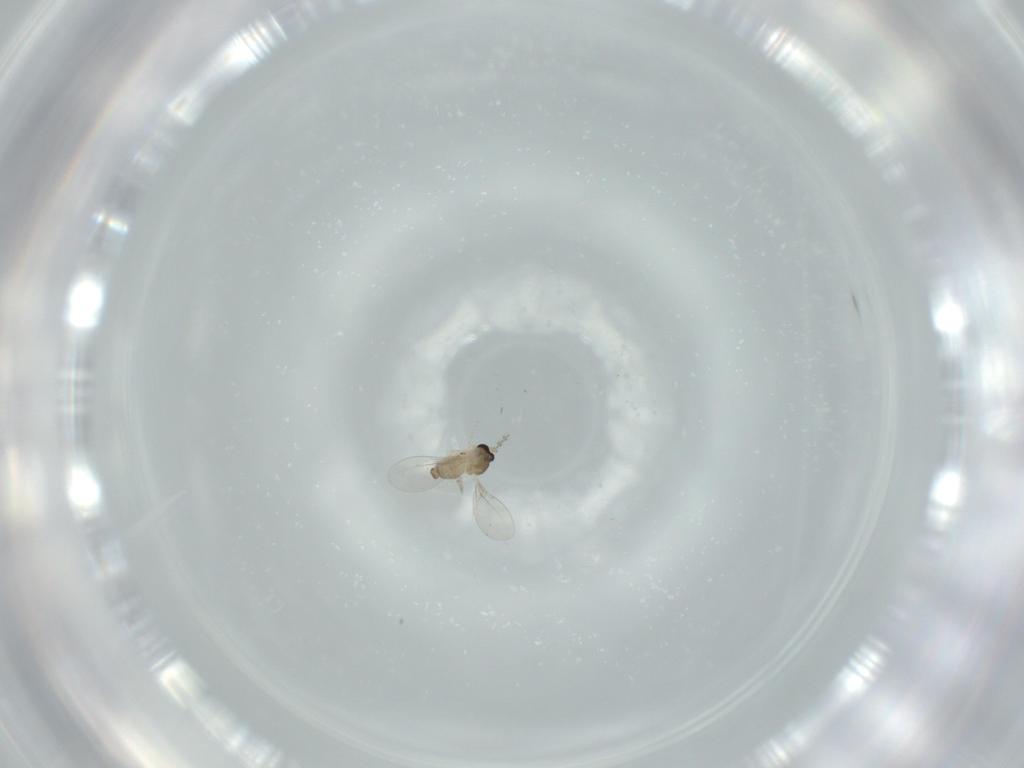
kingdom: Animalia
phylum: Arthropoda
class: Insecta
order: Diptera
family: Cecidomyiidae
